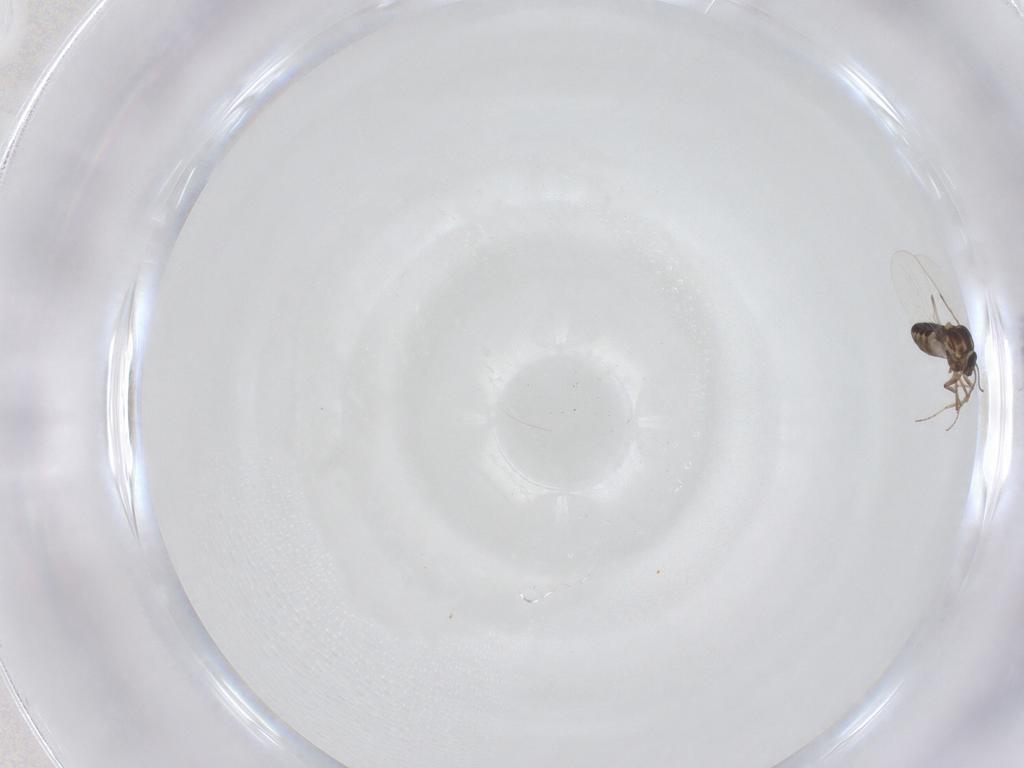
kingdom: Animalia
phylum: Arthropoda
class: Insecta
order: Diptera
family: Ceratopogonidae
